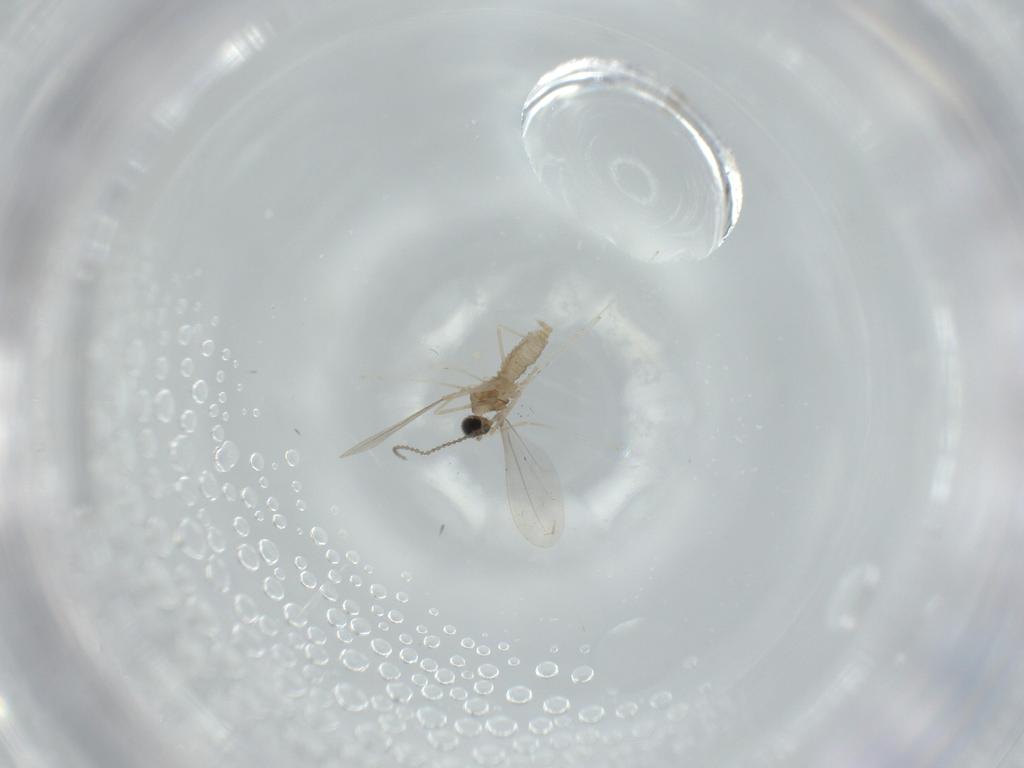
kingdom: Animalia
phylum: Arthropoda
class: Insecta
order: Diptera
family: Cecidomyiidae
